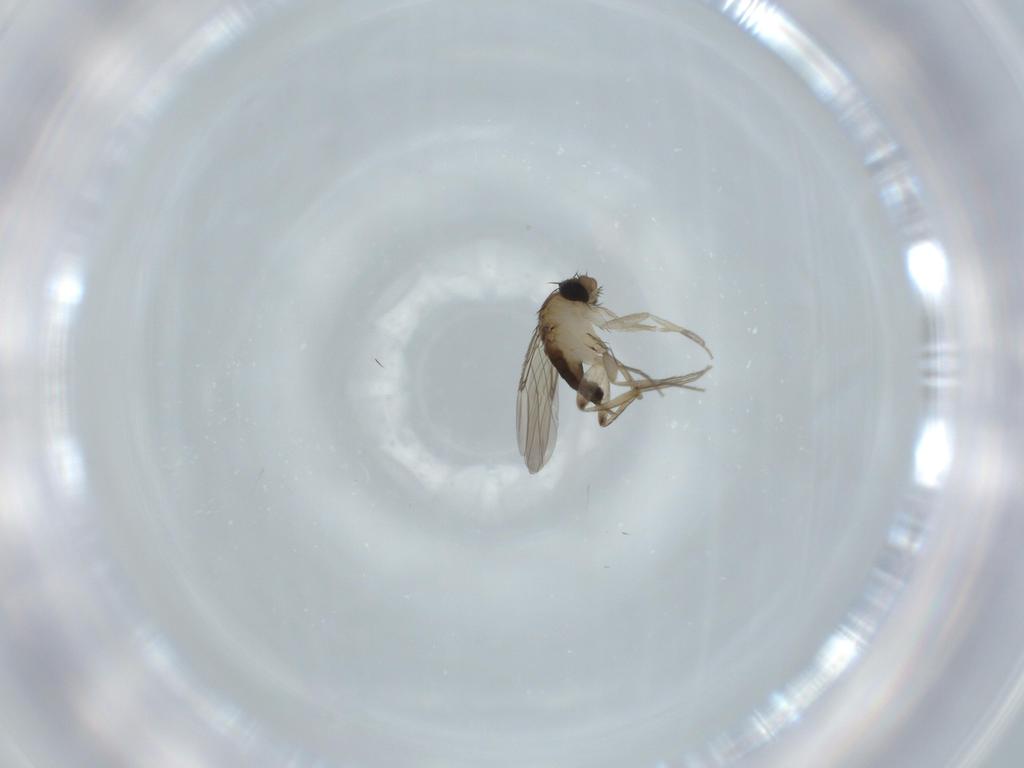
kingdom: Animalia
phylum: Arthropoda
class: Insecta
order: Diptera
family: Phoridae
